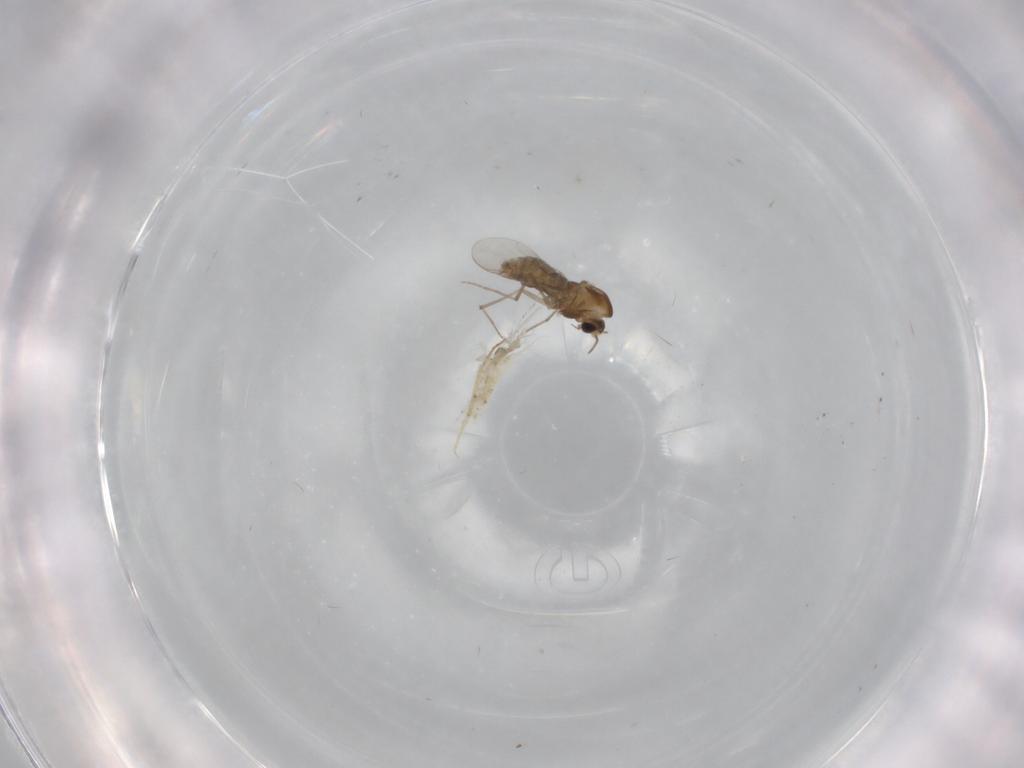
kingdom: Animalia
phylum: Arthropoda
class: Insecta
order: Diptera
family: Chironomidae
